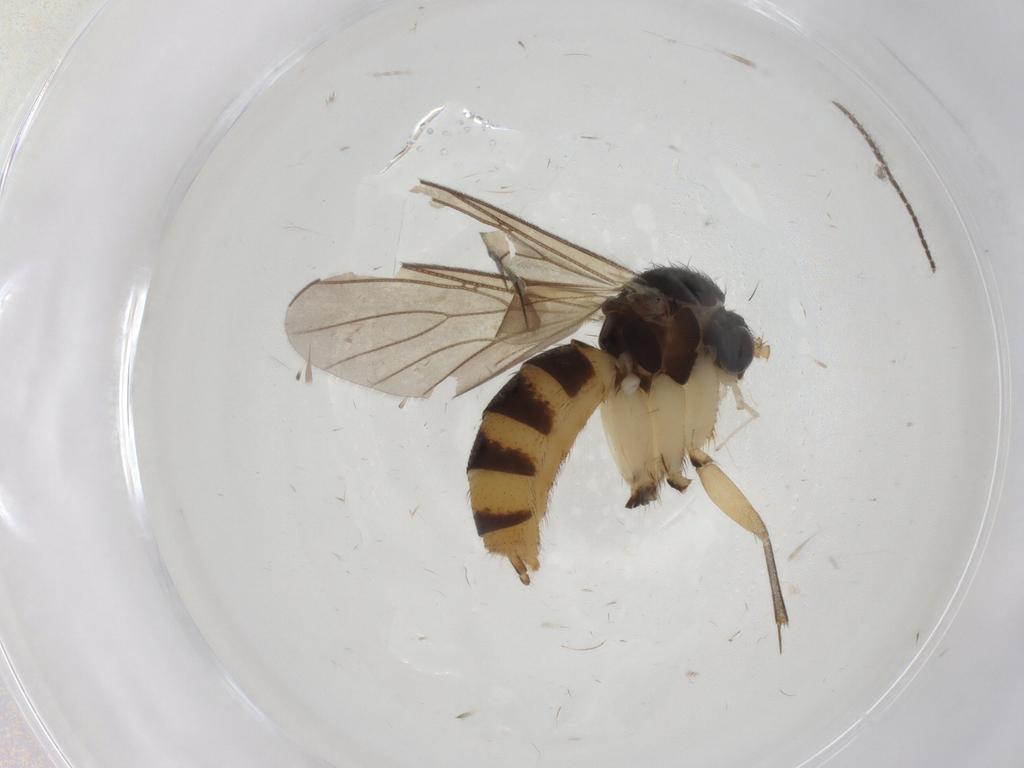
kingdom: Animalia
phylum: Arthropoda
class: Insecta
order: Diptera
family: Mycetophilidae
